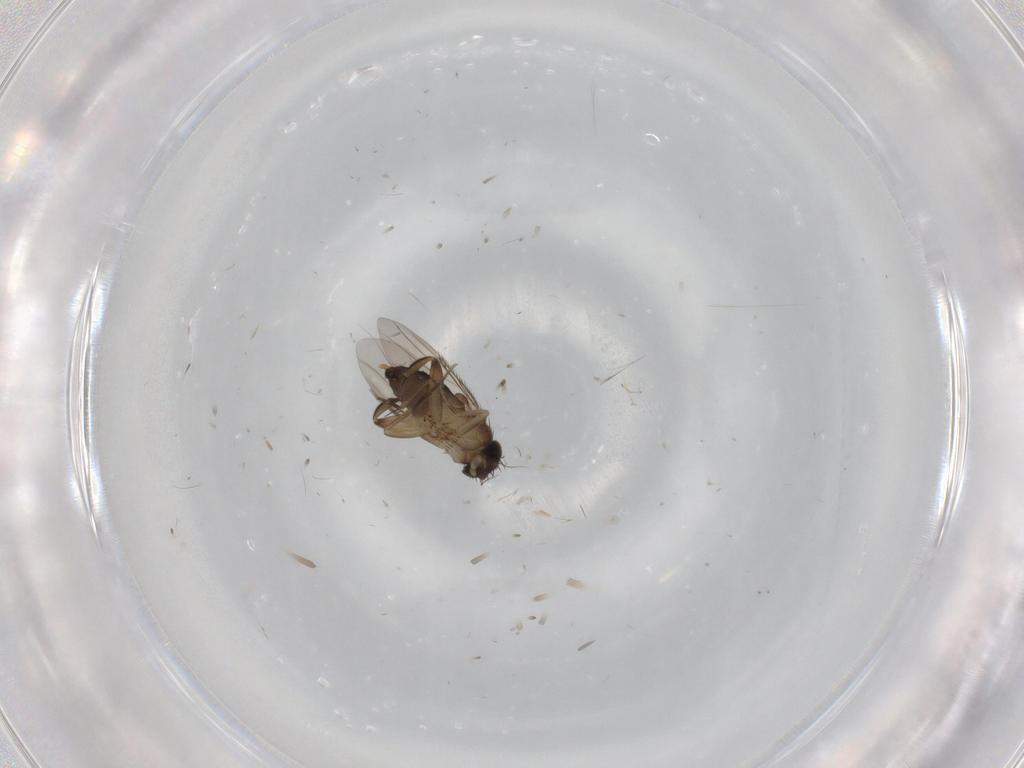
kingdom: Animalia
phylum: Arthropoda
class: Insecta
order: Diptera
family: Phoridae
